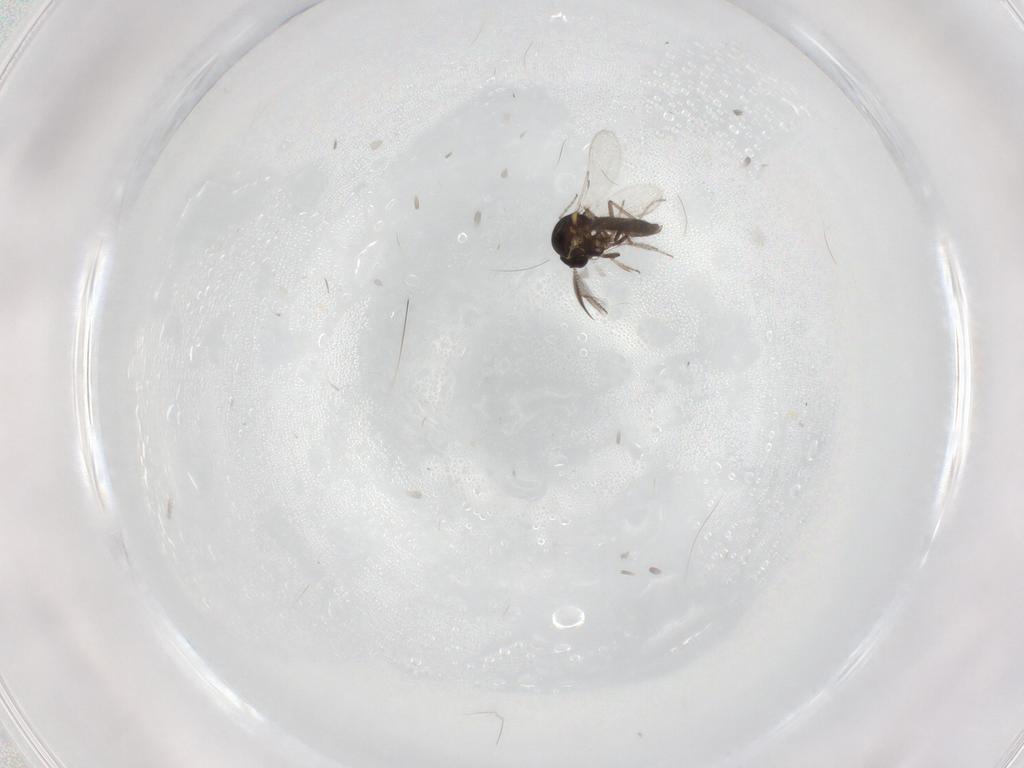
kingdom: Animalia
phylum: Arthropoda
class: Insecta
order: Diptera
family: Ceratopogonidae
